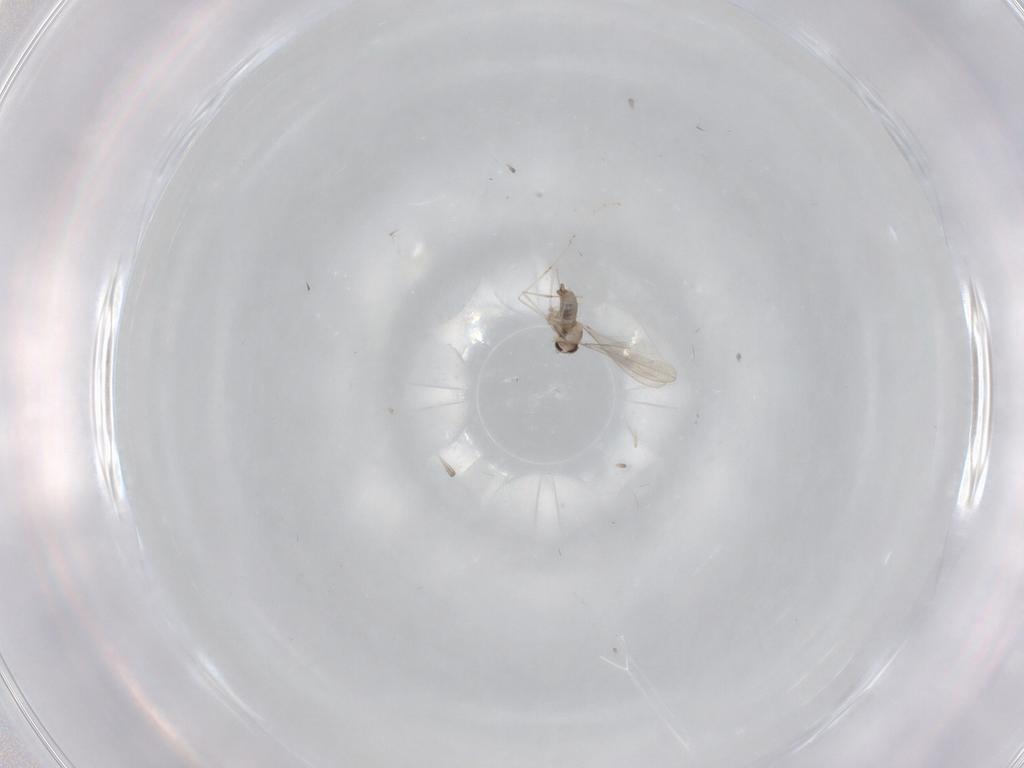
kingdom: Animalia
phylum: Arthropoda
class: Insecta
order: Diptera
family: Cecidomyiidae
